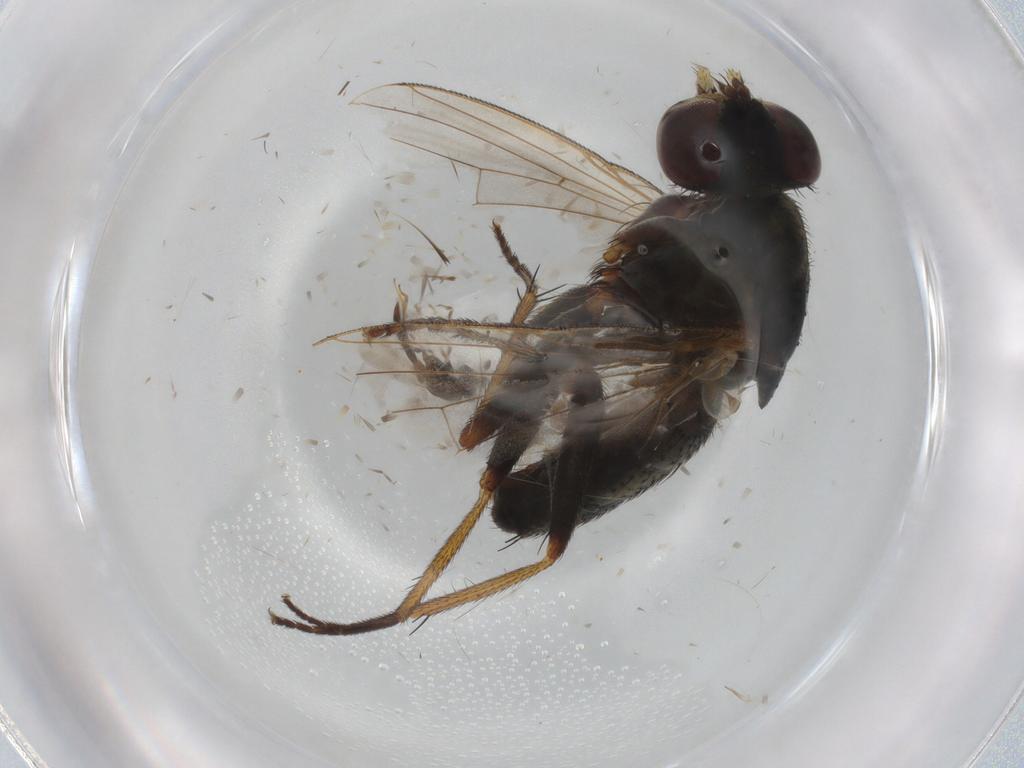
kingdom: Animalia
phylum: Arthropoda
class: Insecta
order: Diptera
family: Muscidae
